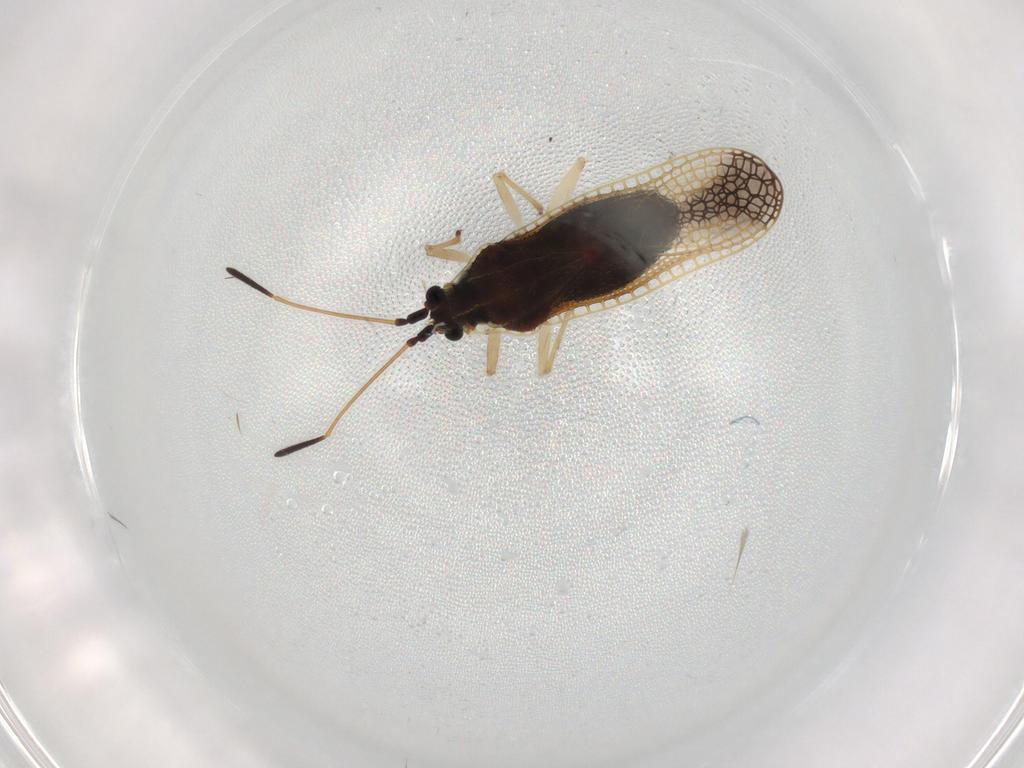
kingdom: Animalia
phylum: Arthropoda
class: Insecta
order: Hemiptera
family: Tingidae
